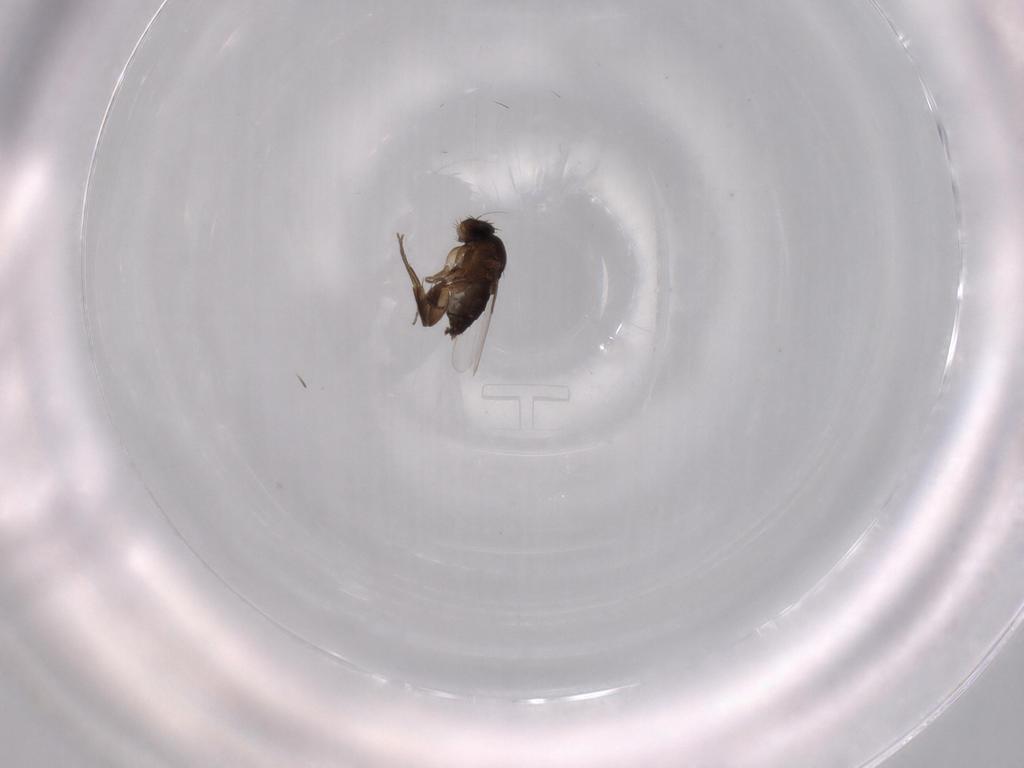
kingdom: Animalia
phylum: Arthropoda
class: Insecta
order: Diptera
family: Phoridae
